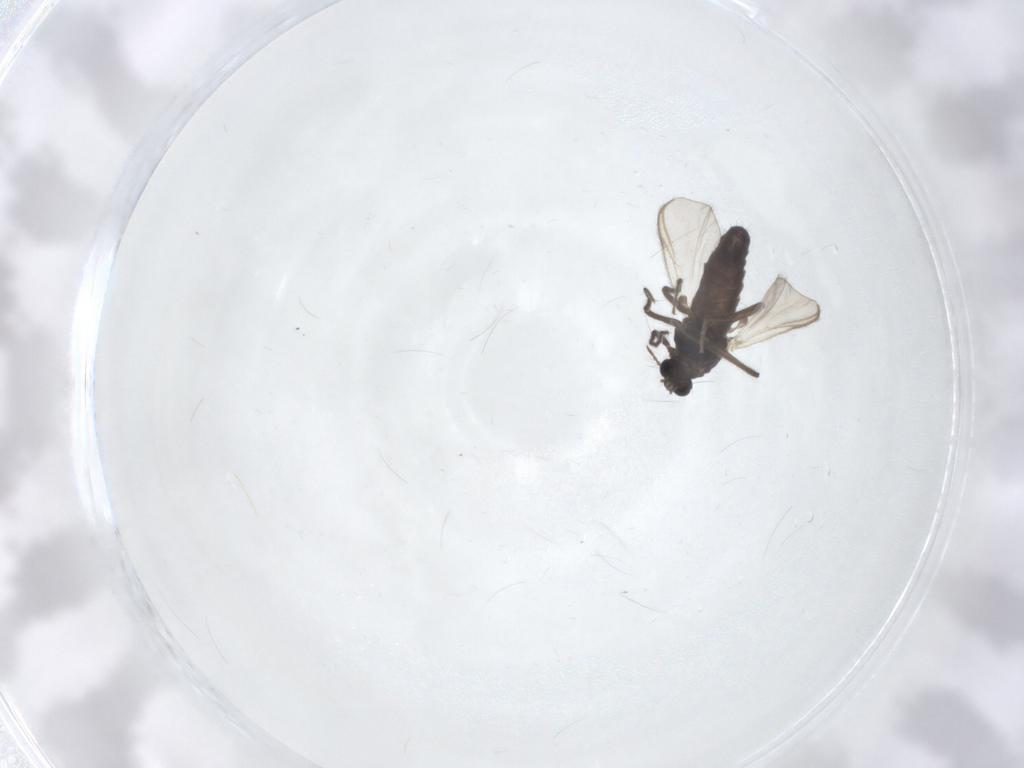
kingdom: Animalia
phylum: Arthropoda
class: Insecta
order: Diptera
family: Chironomidae
